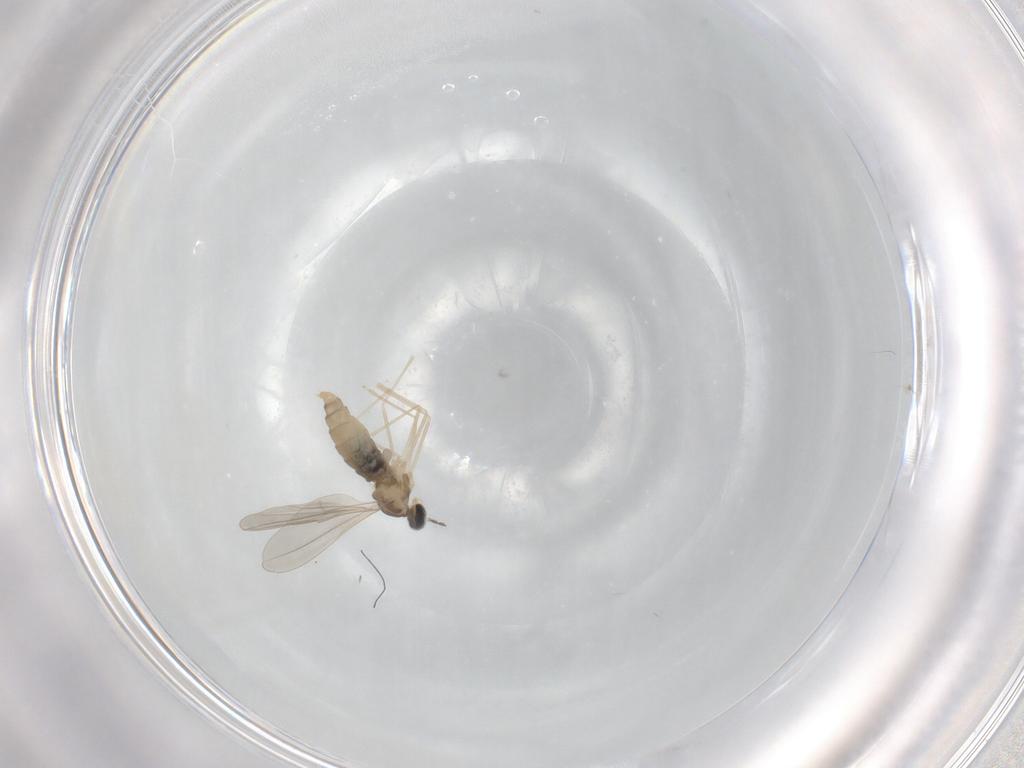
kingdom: Animalia
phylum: Arthropoda
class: Insecta
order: Diptera
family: Cecidomyiidae
